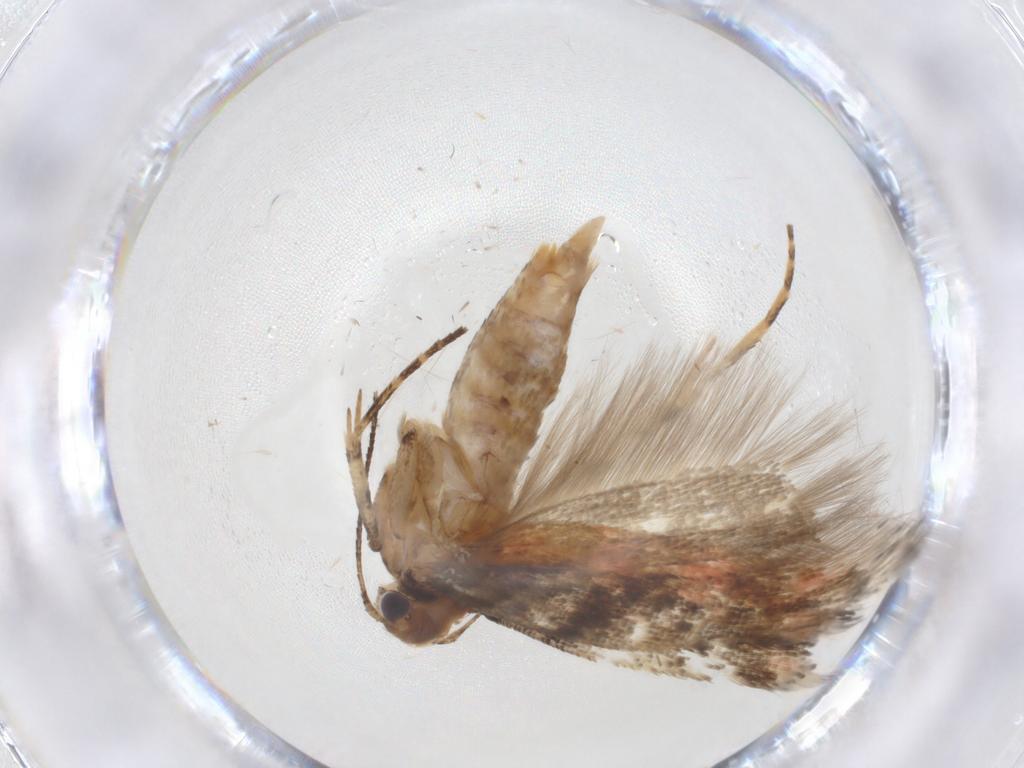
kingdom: Animalia
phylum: Arthropoda
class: Insecta
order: Lepidoptera
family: Gelechiidae
